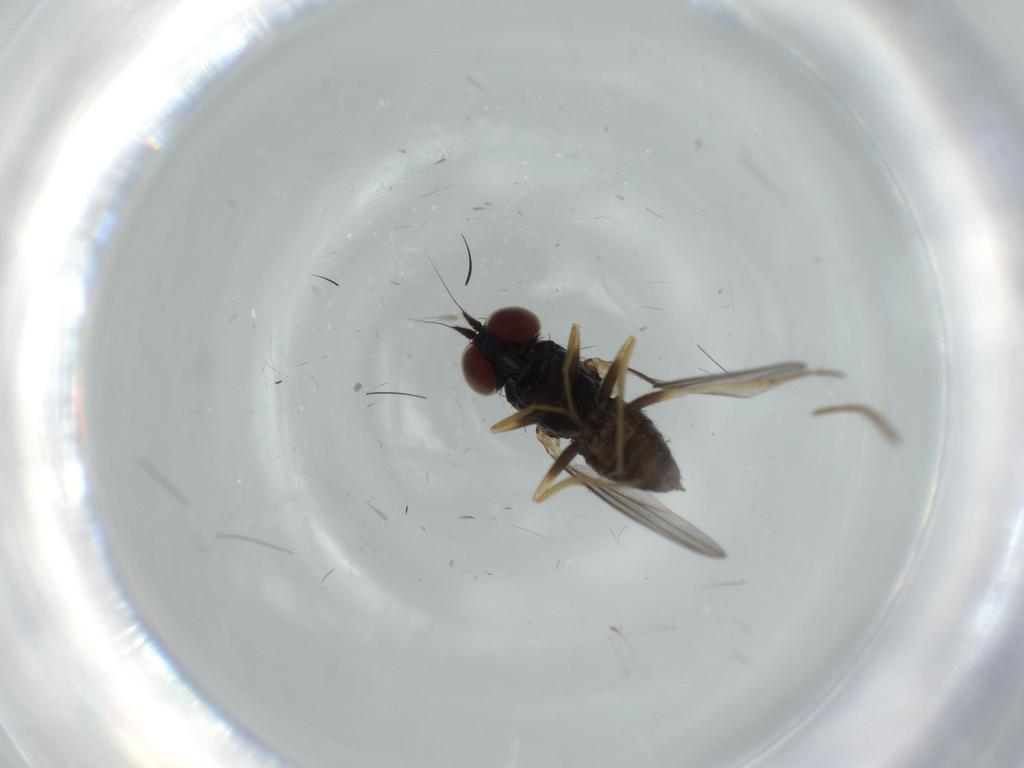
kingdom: Animalia
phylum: Arthropoda
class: Insecta
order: Diptera
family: Dolichopodidae
